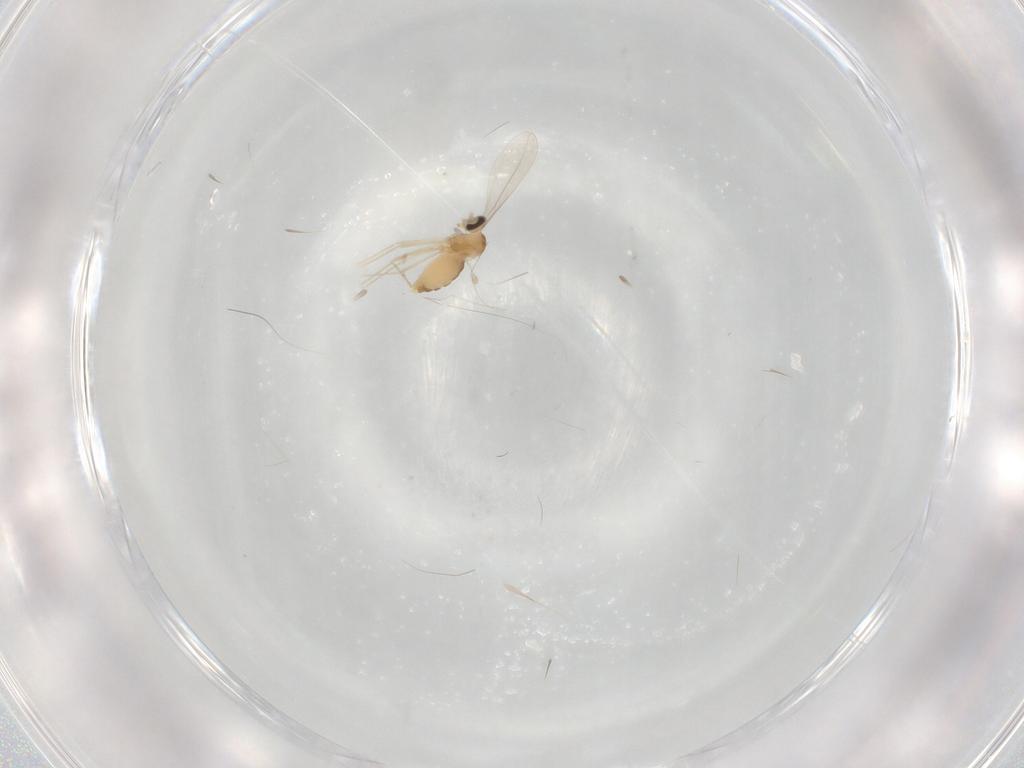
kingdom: Animalia
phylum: Arthropoda
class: Insecta
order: Diptera
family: Cecidomyiidae
